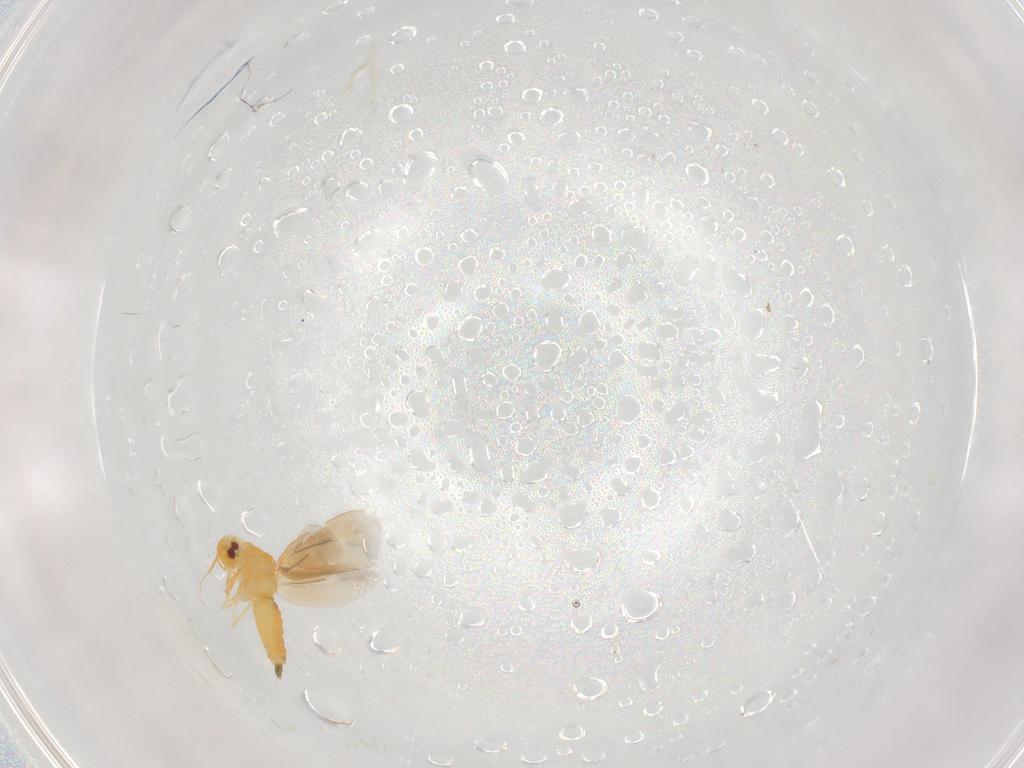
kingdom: Animalia
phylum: Arthropoda
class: Insecta
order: Hemiptera
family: Aleyrodidae
